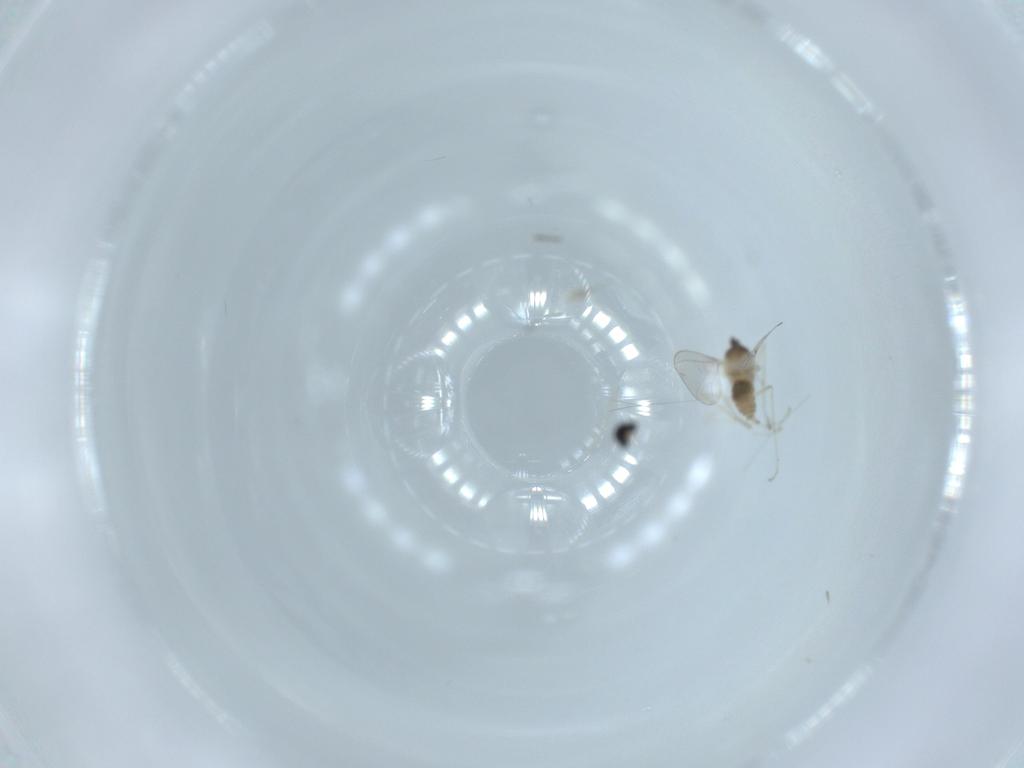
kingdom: Animalia
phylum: Arthropoda
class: Insecta
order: Diptera
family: Cecidomyiidae
